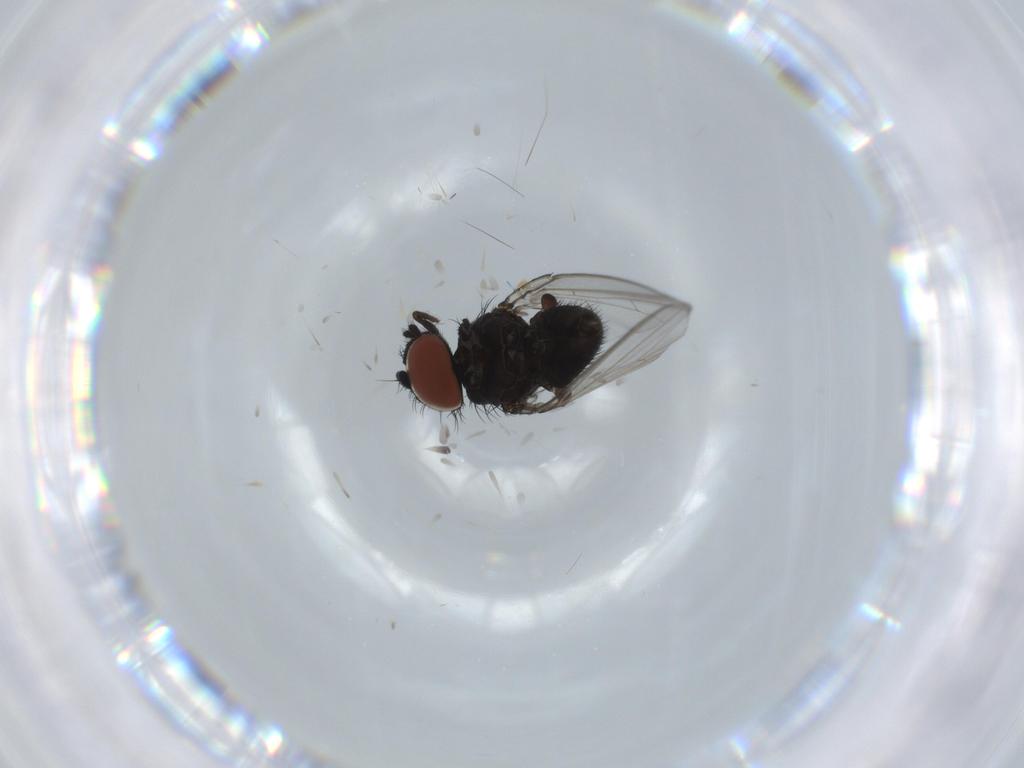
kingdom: Animalia
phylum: Arthropoda
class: Insecta
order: Diptera
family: Milichiidae
